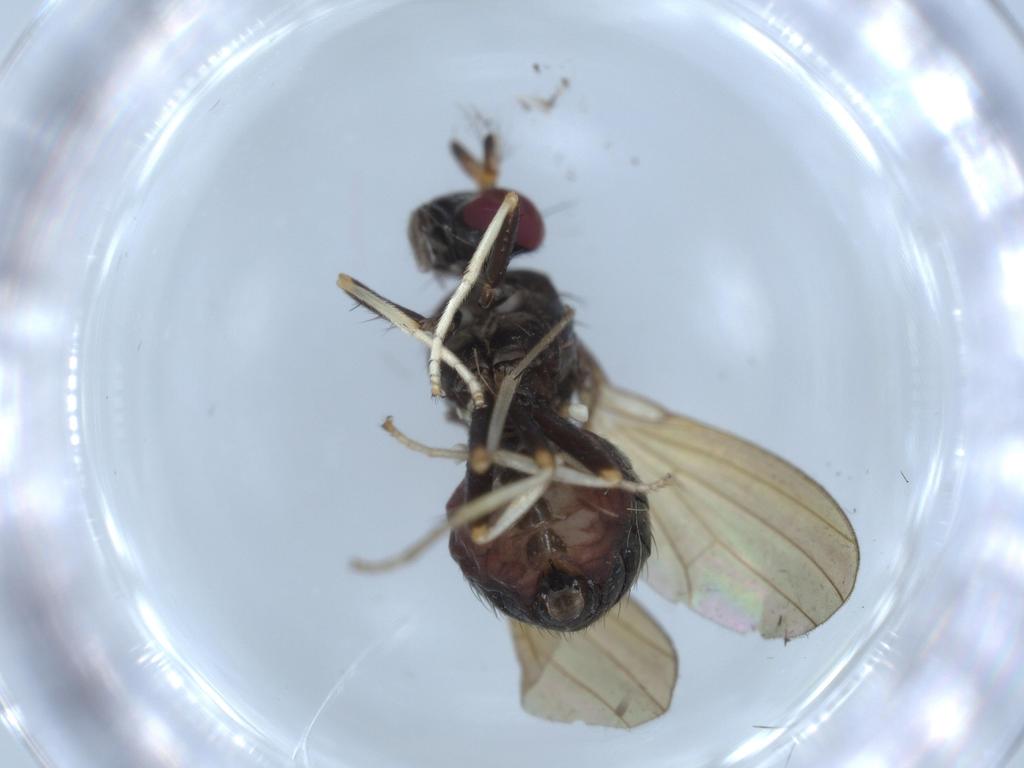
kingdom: Animalia
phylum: Arthropoda
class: Insecta
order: Diptera
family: Lauxaniidae
